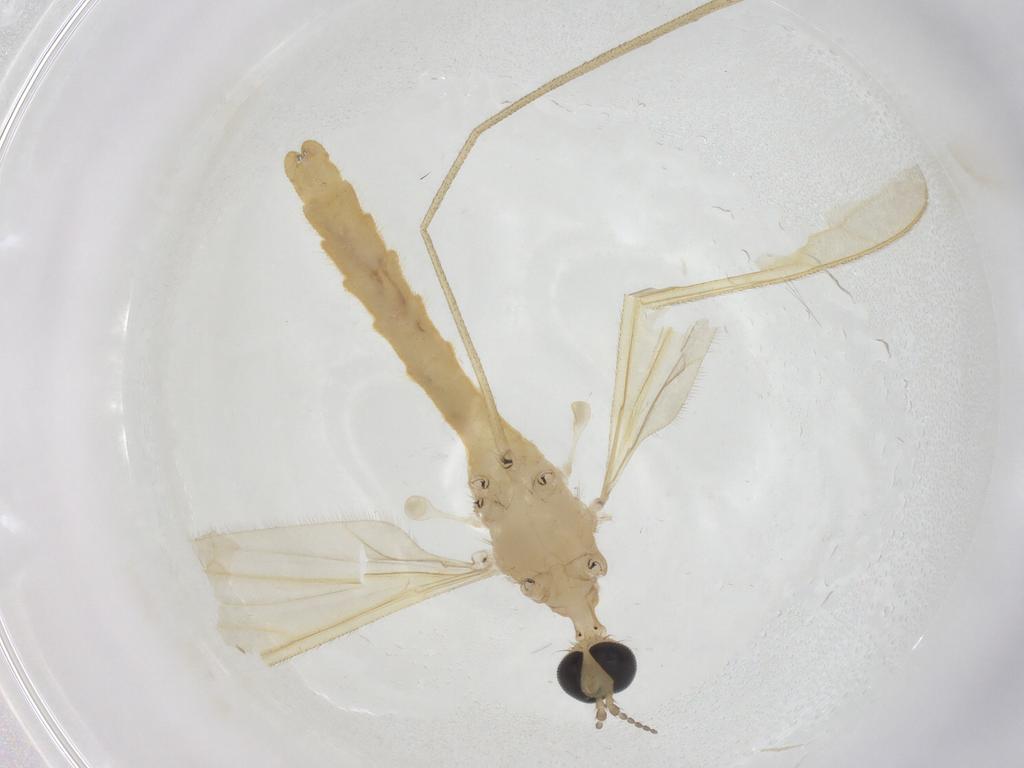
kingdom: Animalia
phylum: Arthropoda
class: Insecta
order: Diptera
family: Limoniidae
